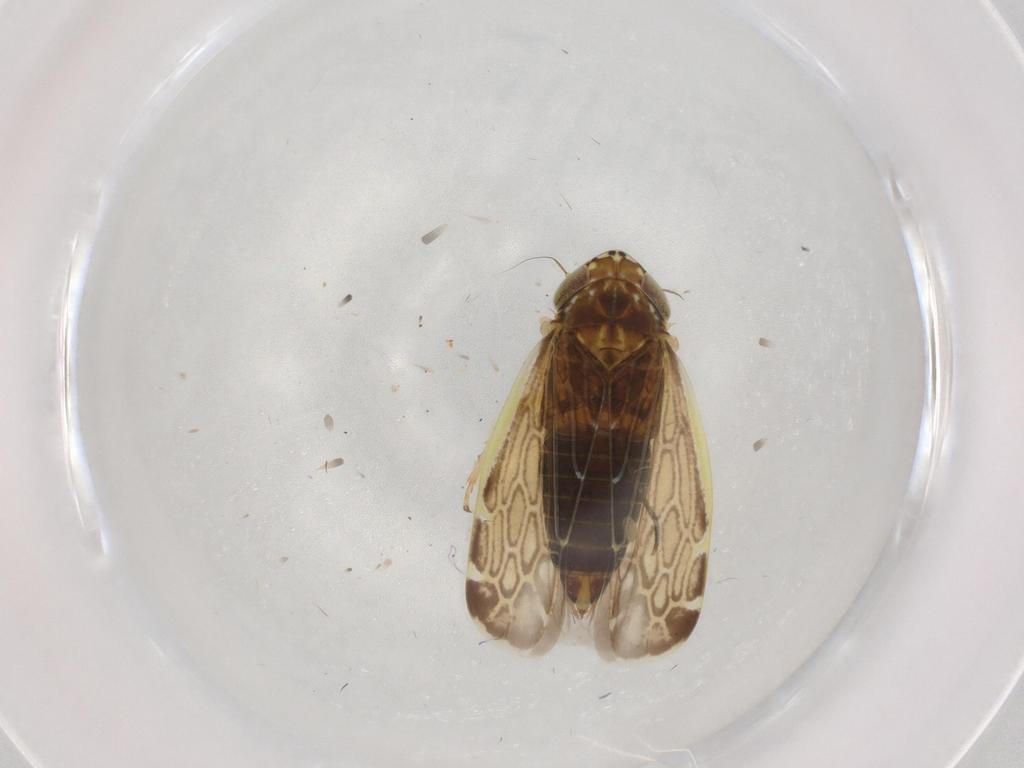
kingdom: Animalia
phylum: Arthropoda
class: Insecta
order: Hemiptera
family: Cicadellidae
